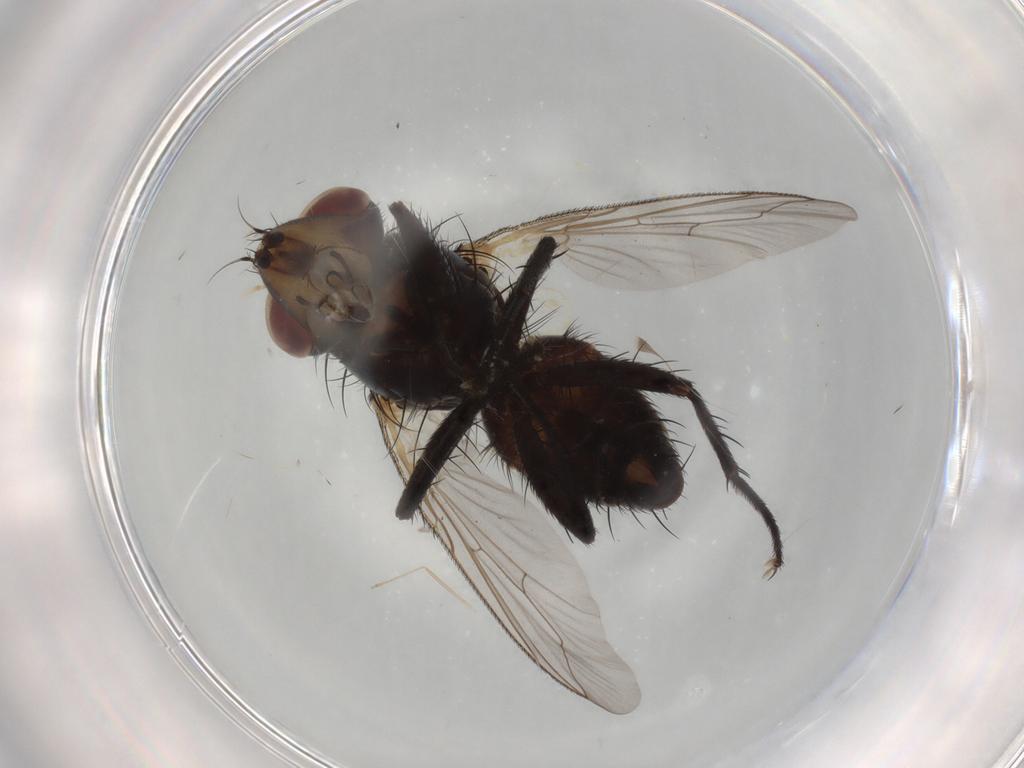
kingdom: Animalia
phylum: Arthropoda
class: Insecta
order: Diptera
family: Sarcophagidae
